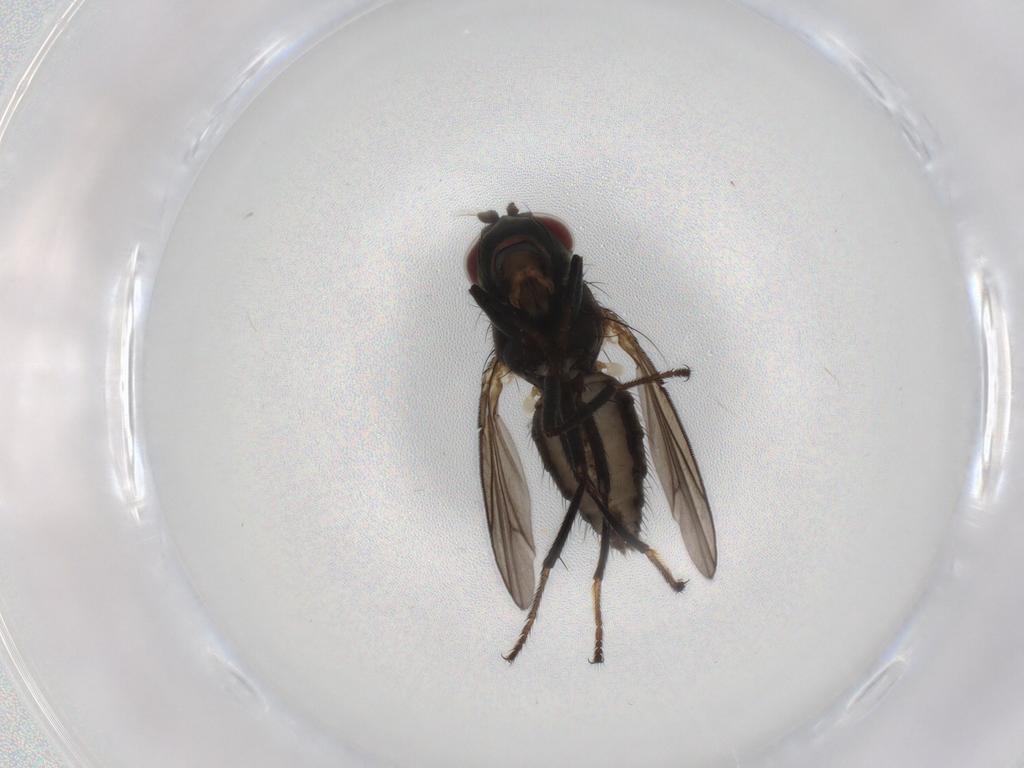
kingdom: Animalia
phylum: Arthropoda
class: Insecta
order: Diptera
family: Ephydridae
